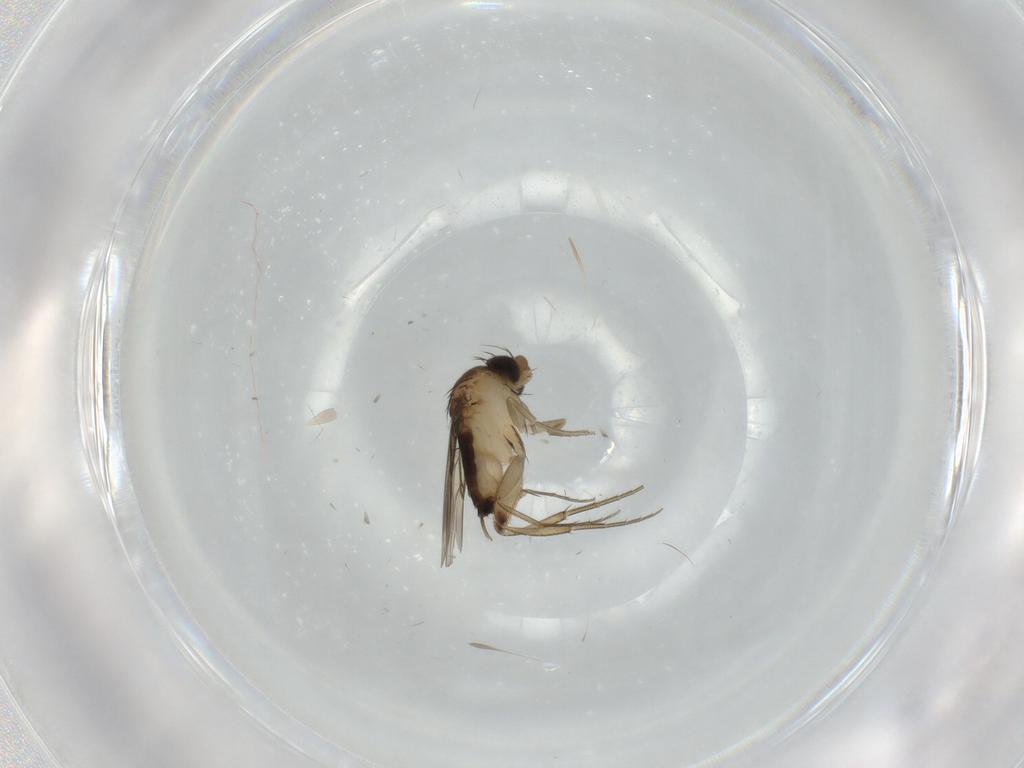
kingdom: Animalia
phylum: Arthropoda
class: Insecta
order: Diptera
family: Phoridae
